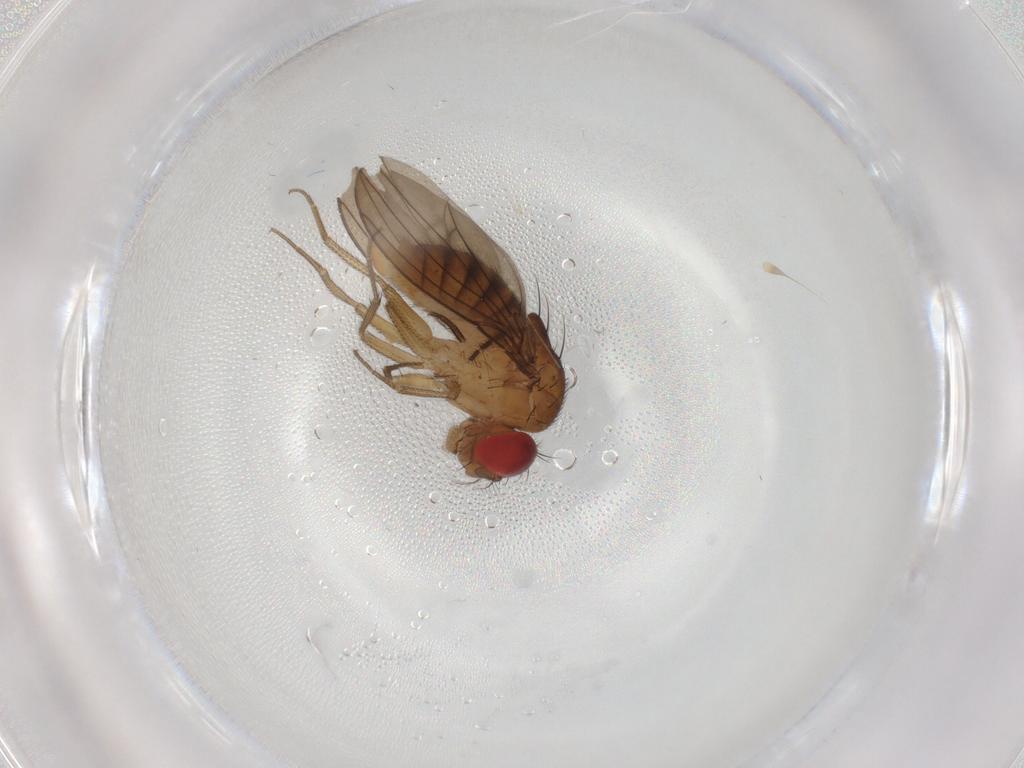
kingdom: Animalia
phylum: Arthropoda
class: Insecta
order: Diptera
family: Drosophilidae
